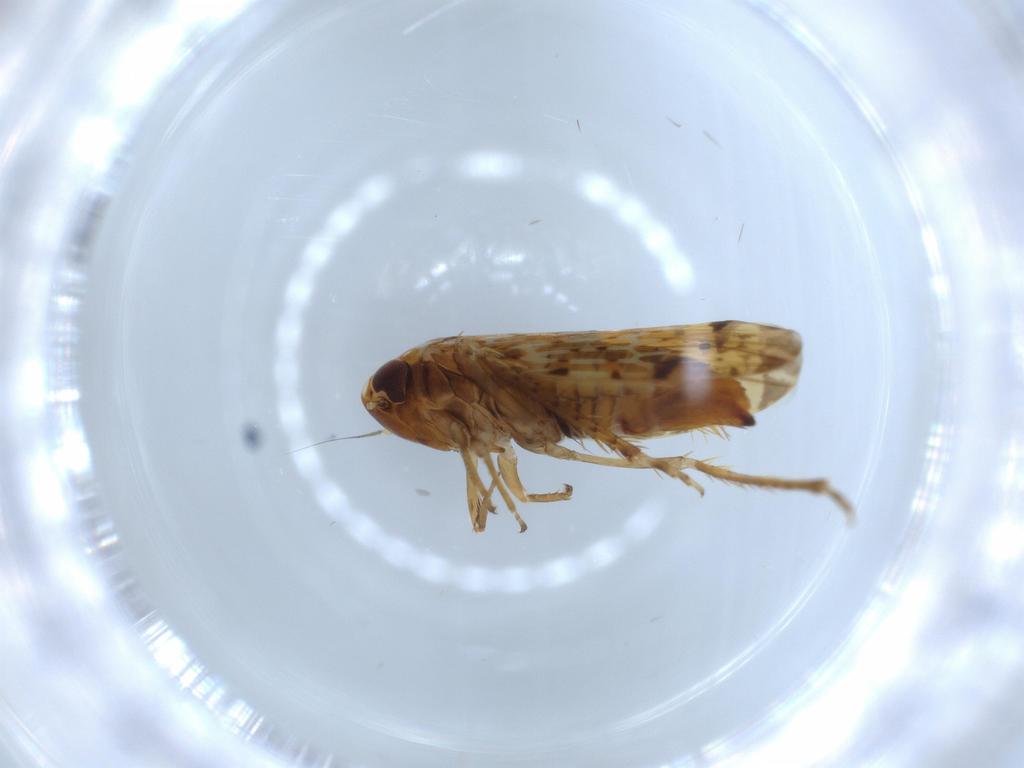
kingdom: Animalia
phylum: Arthropoda
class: Insecta
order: Hemiptera
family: Cicadellidae
